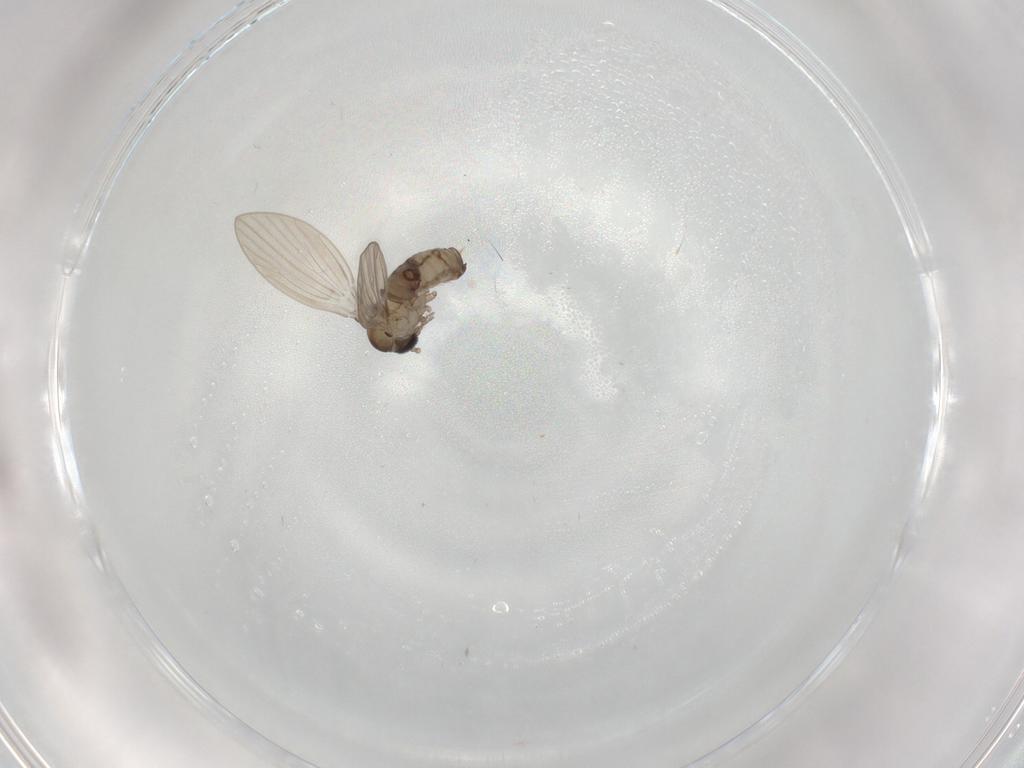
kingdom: Animalia
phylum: Arthropoda
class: Insecta
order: Diptera
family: Psychodidae
